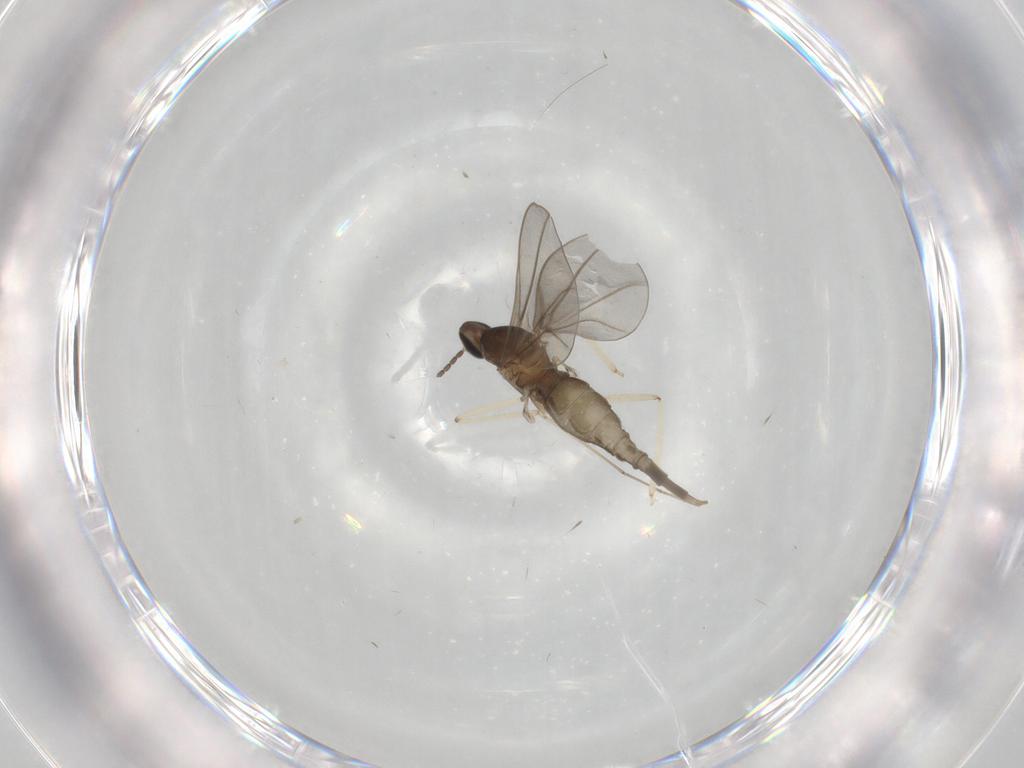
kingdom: Animalia
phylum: Arthropoda
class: Insecta
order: Diptera
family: Cecidomyiidae
